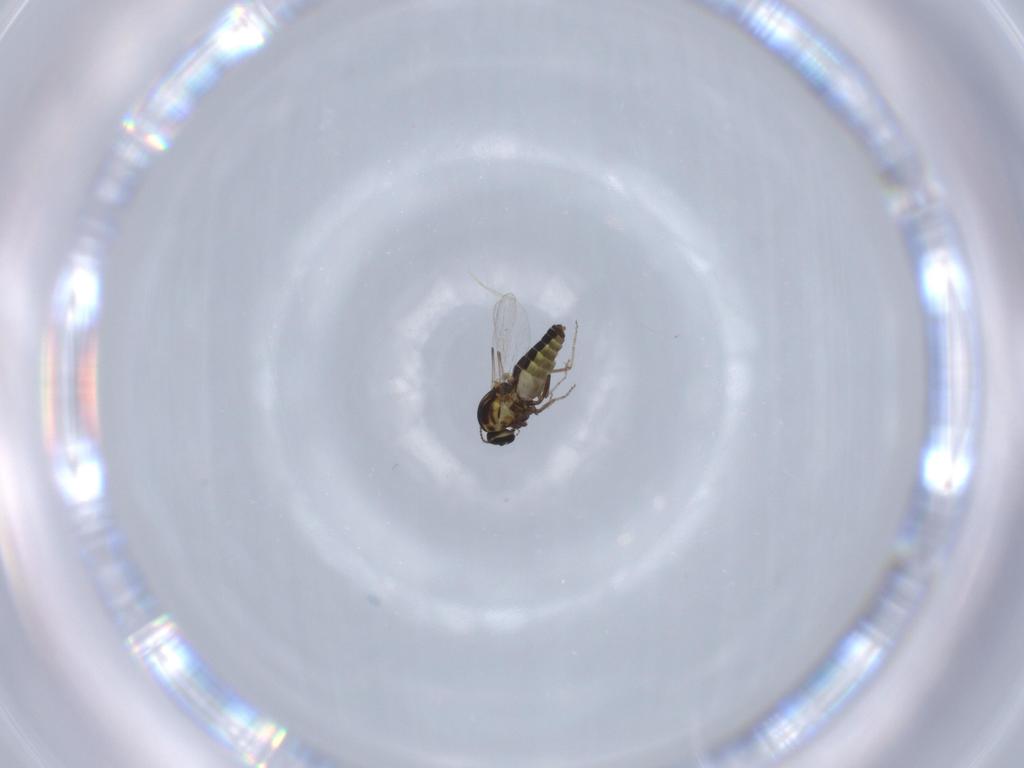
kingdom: Animalia
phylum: Arthropoda
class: Insecta
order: Diptera
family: Ceratopogonidae
